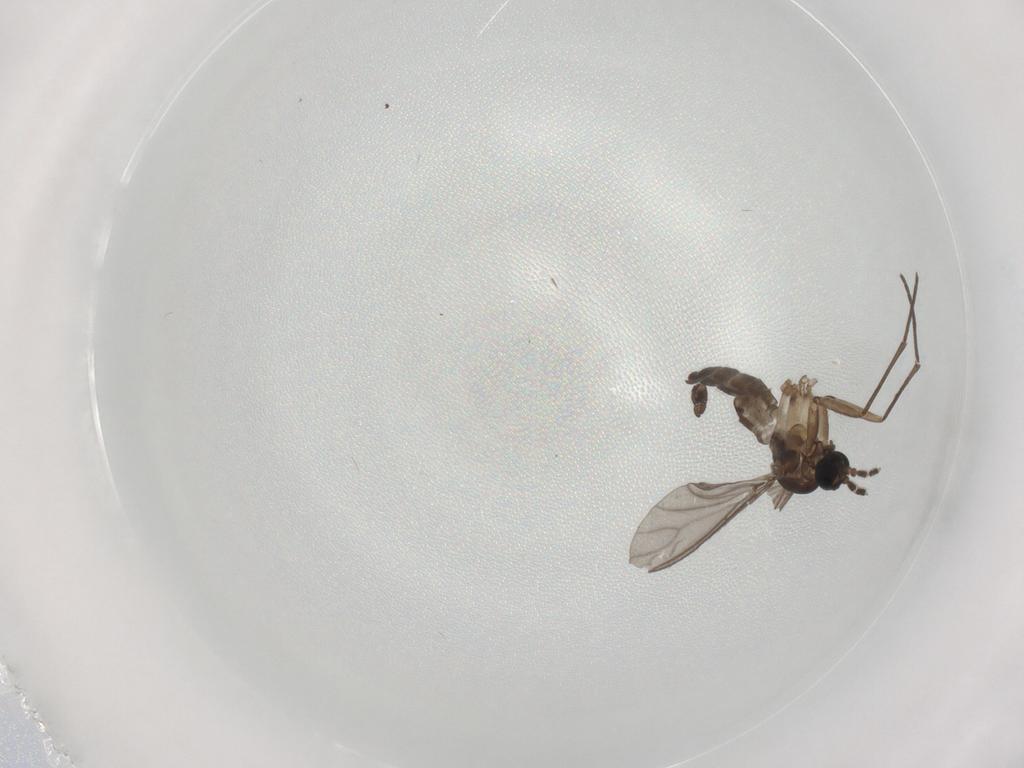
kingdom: Animalia
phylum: Arthropoda
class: Insecta
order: Diptera
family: Sciaridae
